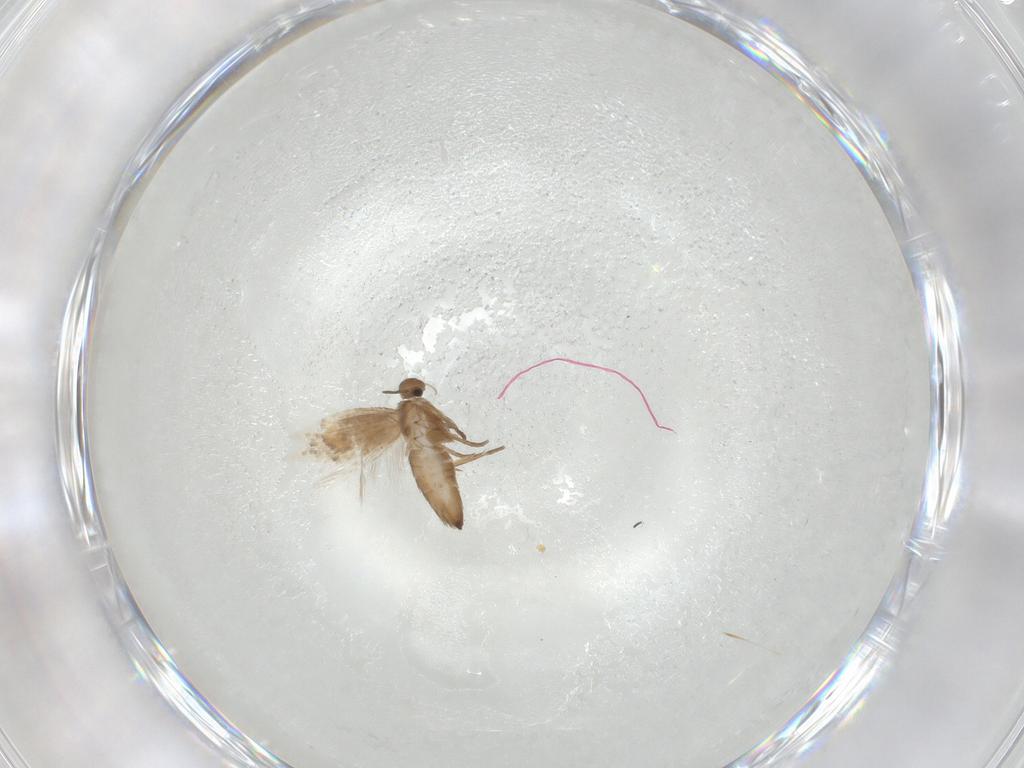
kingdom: Animalia
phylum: Arthropoda
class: Insecta
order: Lepidoptera
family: Heliozelidae
